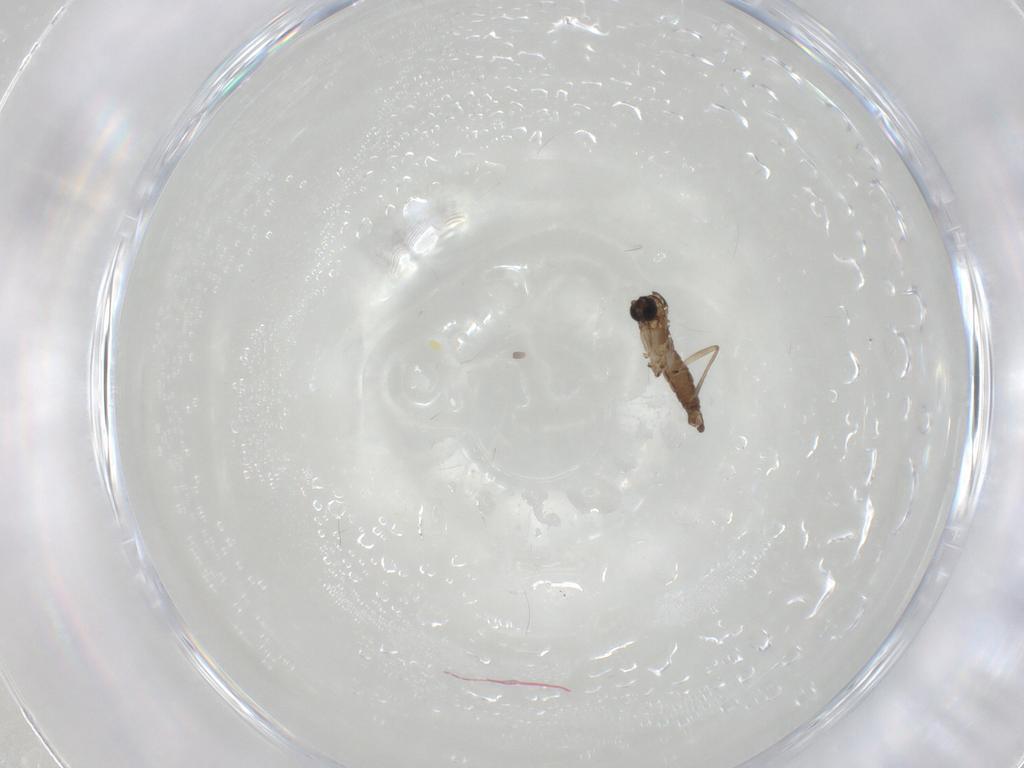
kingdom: Animalia
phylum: Arthropoda
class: Insecta
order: Diptera
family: Sciaridae
